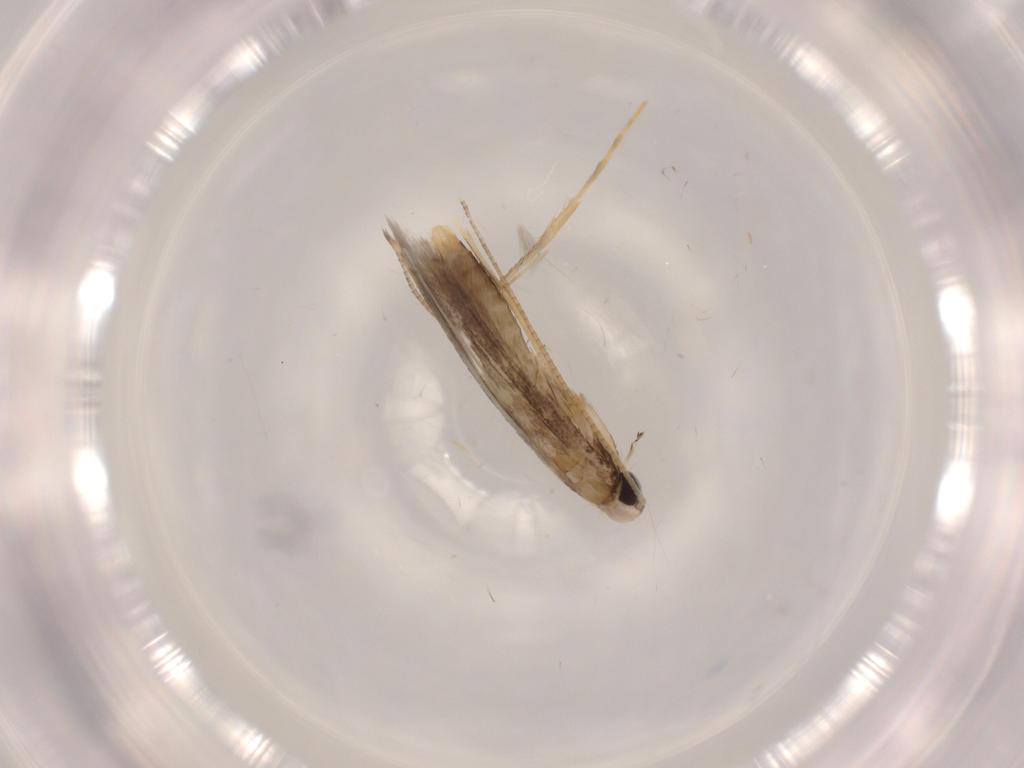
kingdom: Animalia
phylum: Arthropoda
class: Insecta
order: Lepidoptera
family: Tineidae
